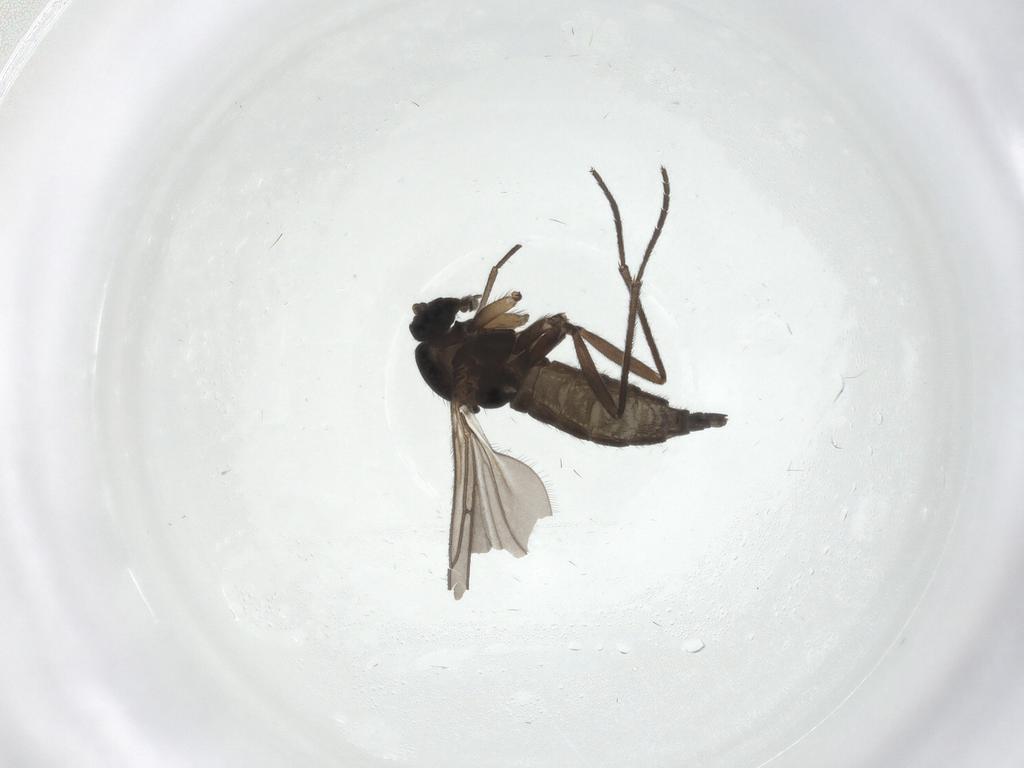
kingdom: Animalia
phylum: Arthropoda
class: Insecta
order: Diptera
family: Sciaridae
